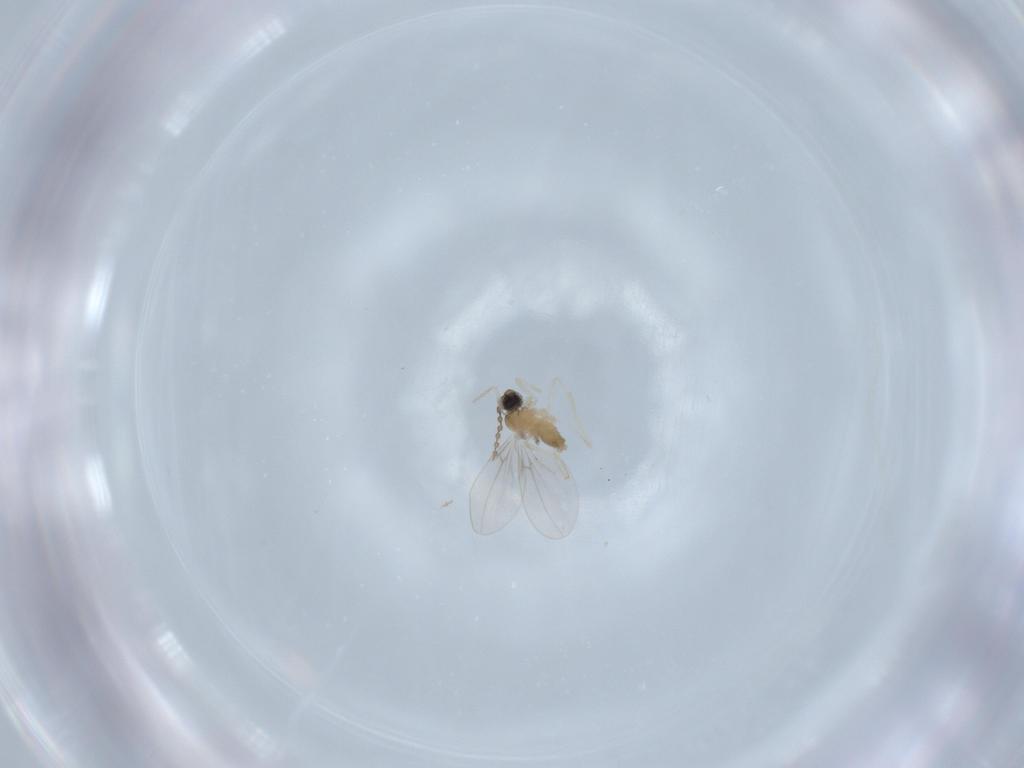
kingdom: Animalia
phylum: Arthropoda
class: Insecta
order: Diptera
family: Cecidomyiidae
